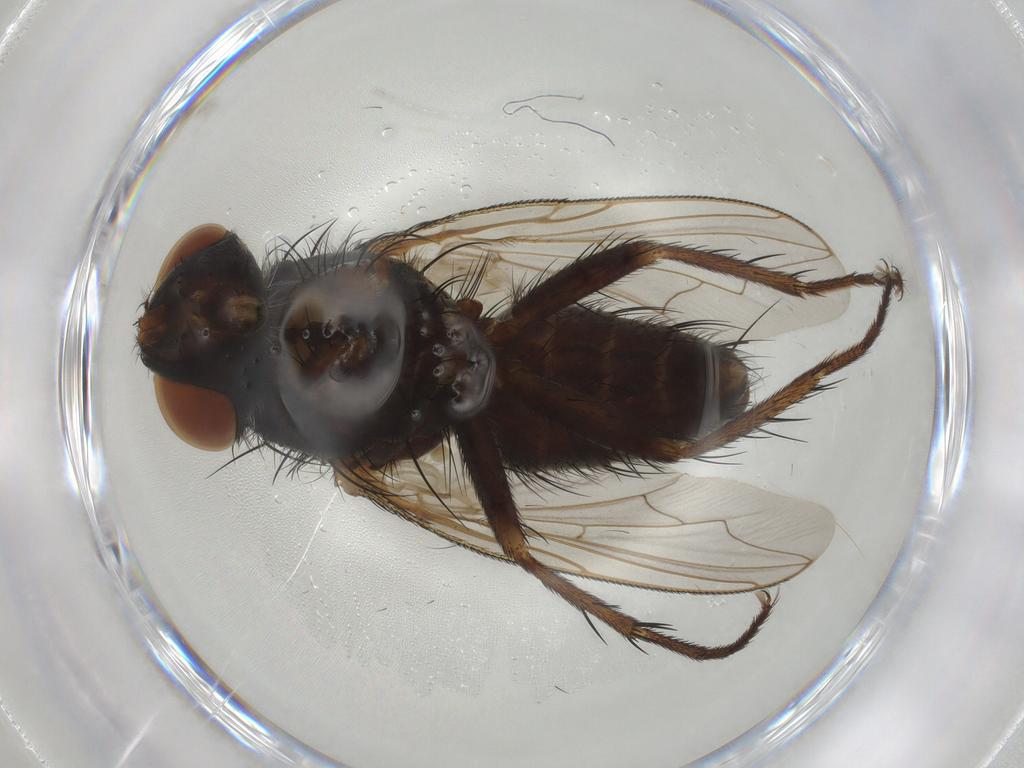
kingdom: Animalia
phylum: Arthropoda
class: Insecta
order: Diptera
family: Sarcophagidae
